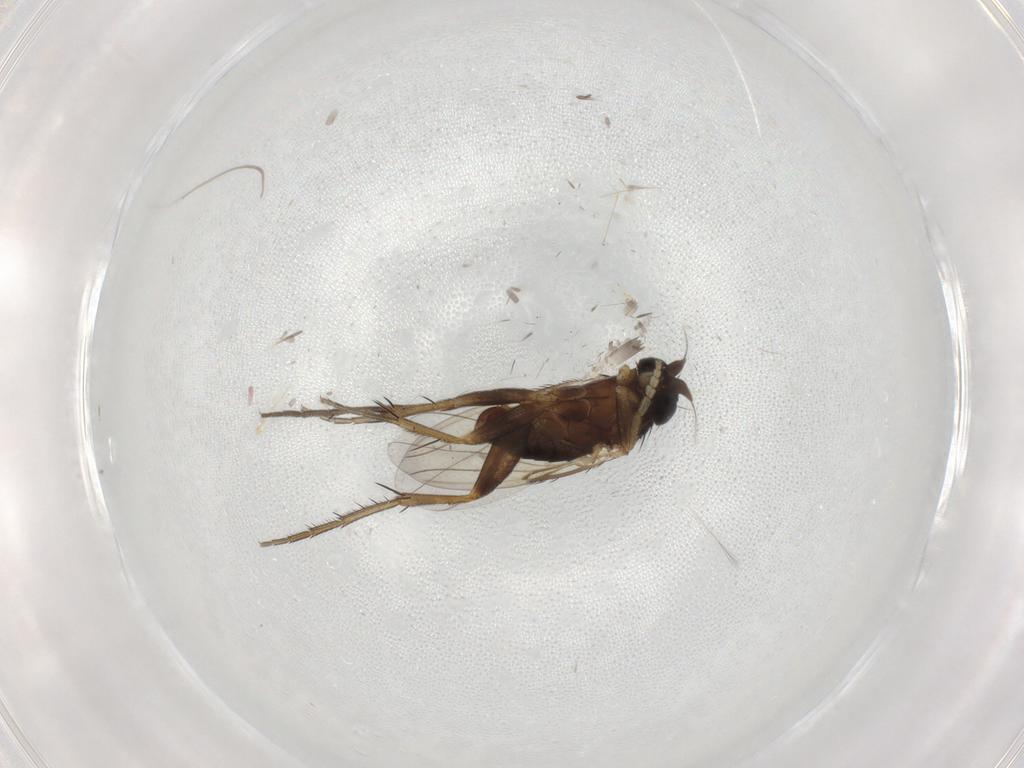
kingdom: Animalia
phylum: Arthropoda
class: Insecta
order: Diptera
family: Phoridae
